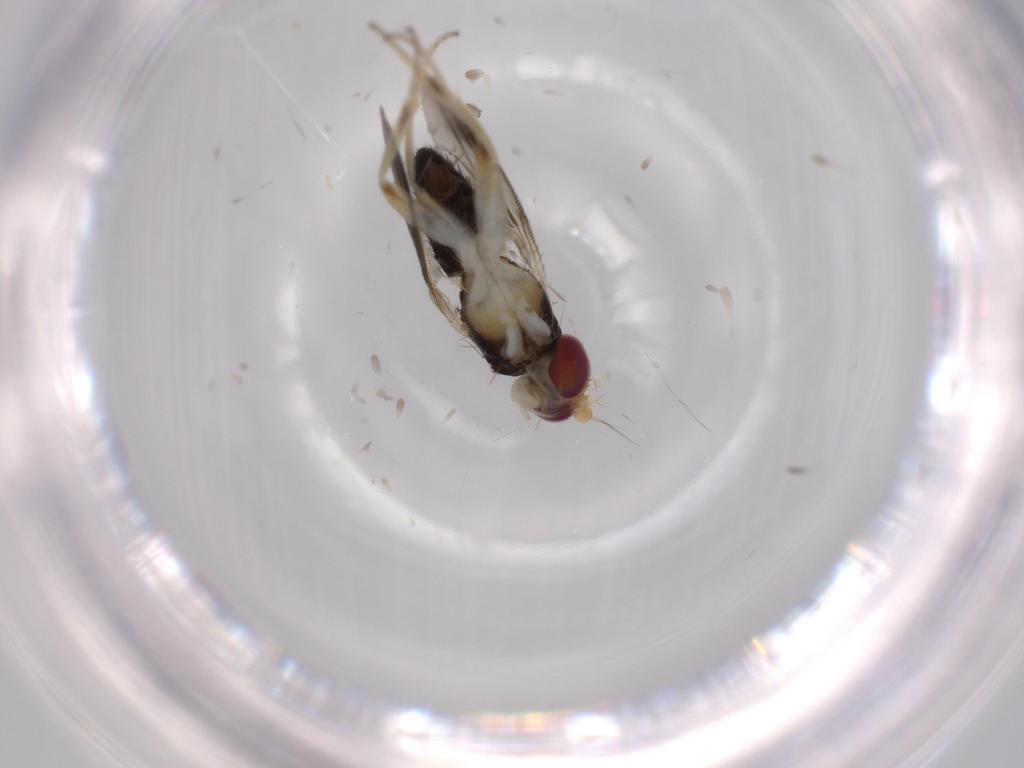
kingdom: Animalia
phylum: Arthropoda
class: Insecta
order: Diptera
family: Clusiidae
